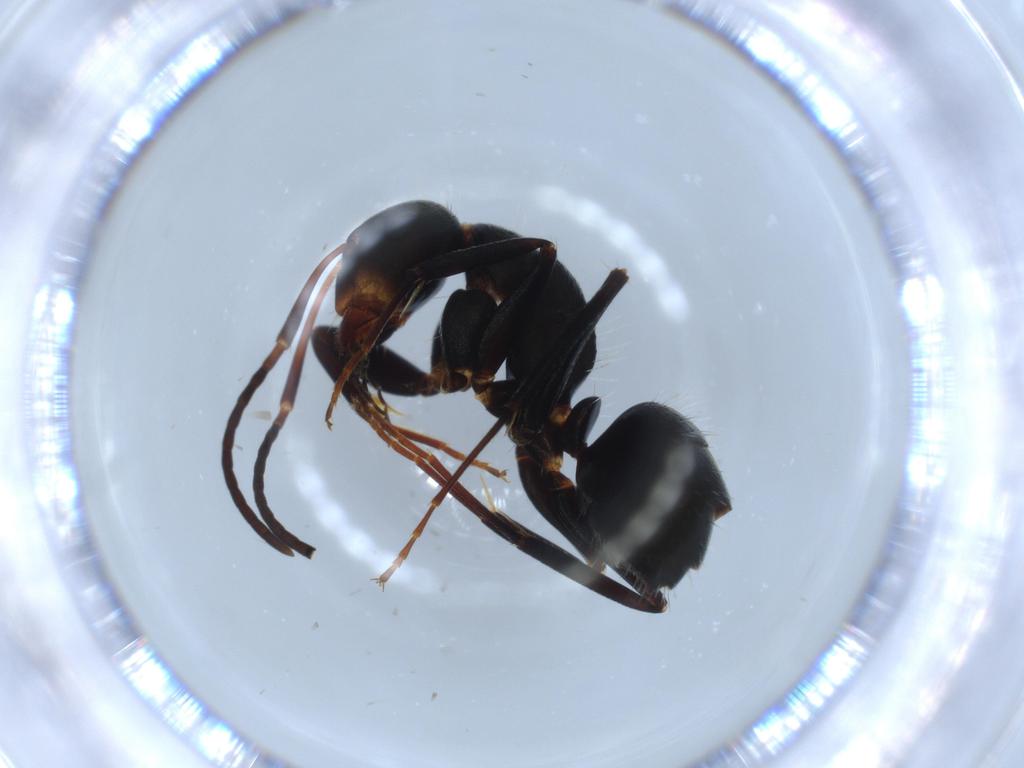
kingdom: Animalia
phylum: Arthropoda
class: Insecta
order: Hymenoptera
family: Formicidae
